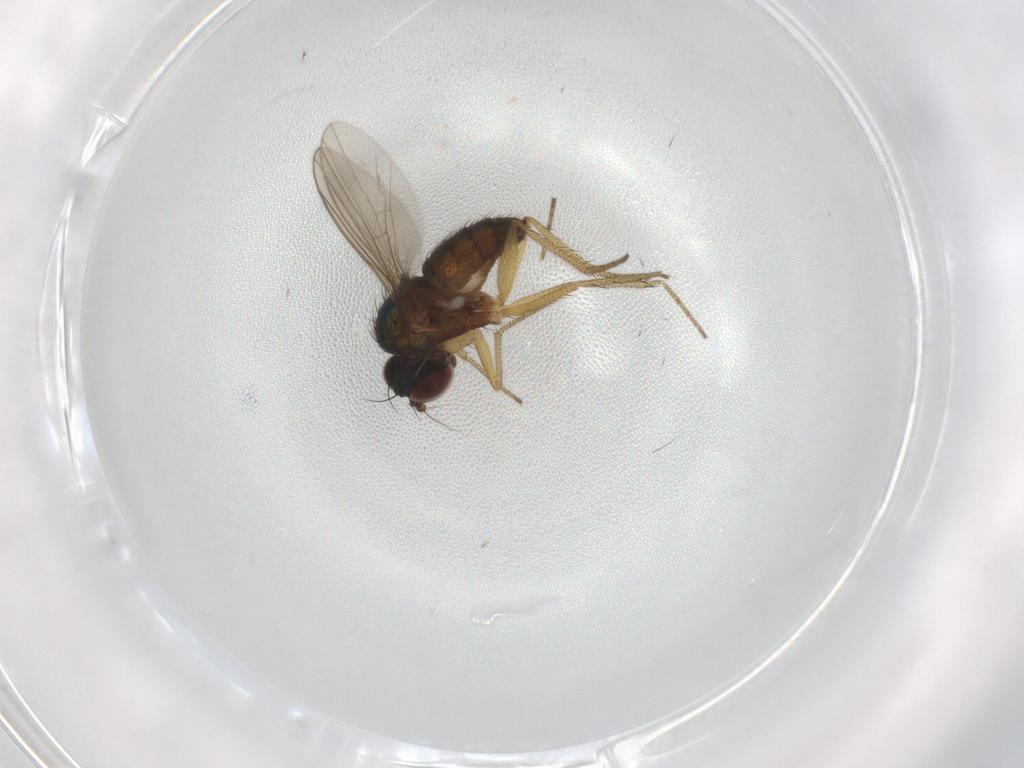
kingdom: Animalia
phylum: Arthropoda
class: Insecta
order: Diptera
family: Dolichopodidae
